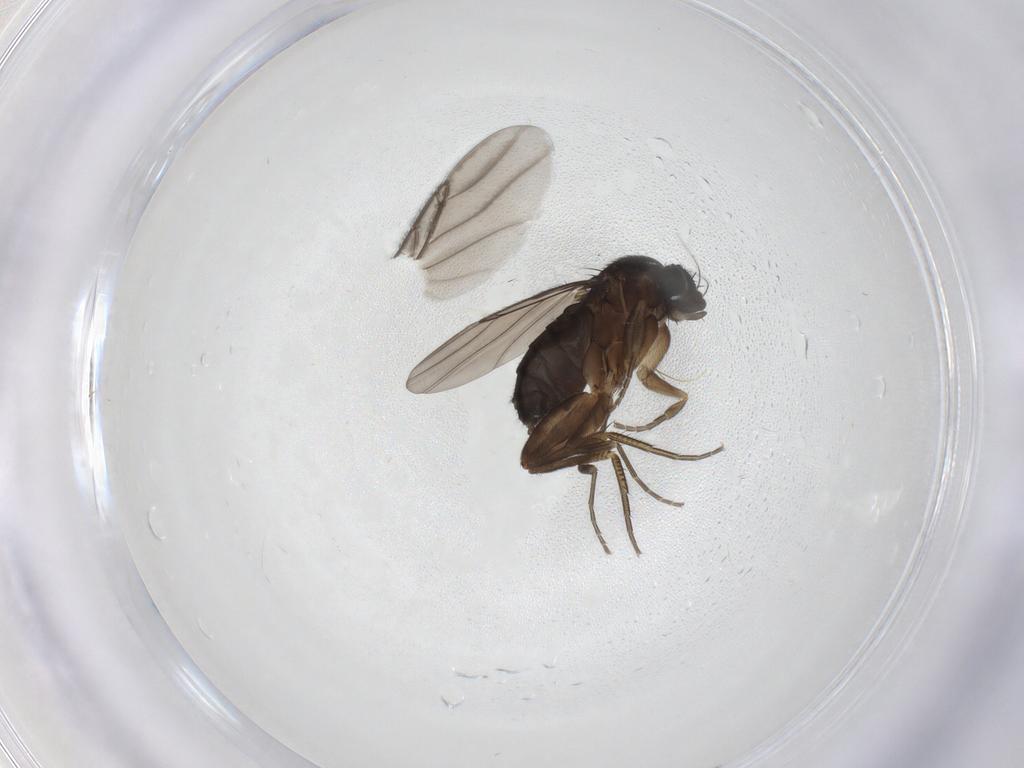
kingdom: Animalia
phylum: Arthropoda
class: Insecta
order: Diptera
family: Phoridae
